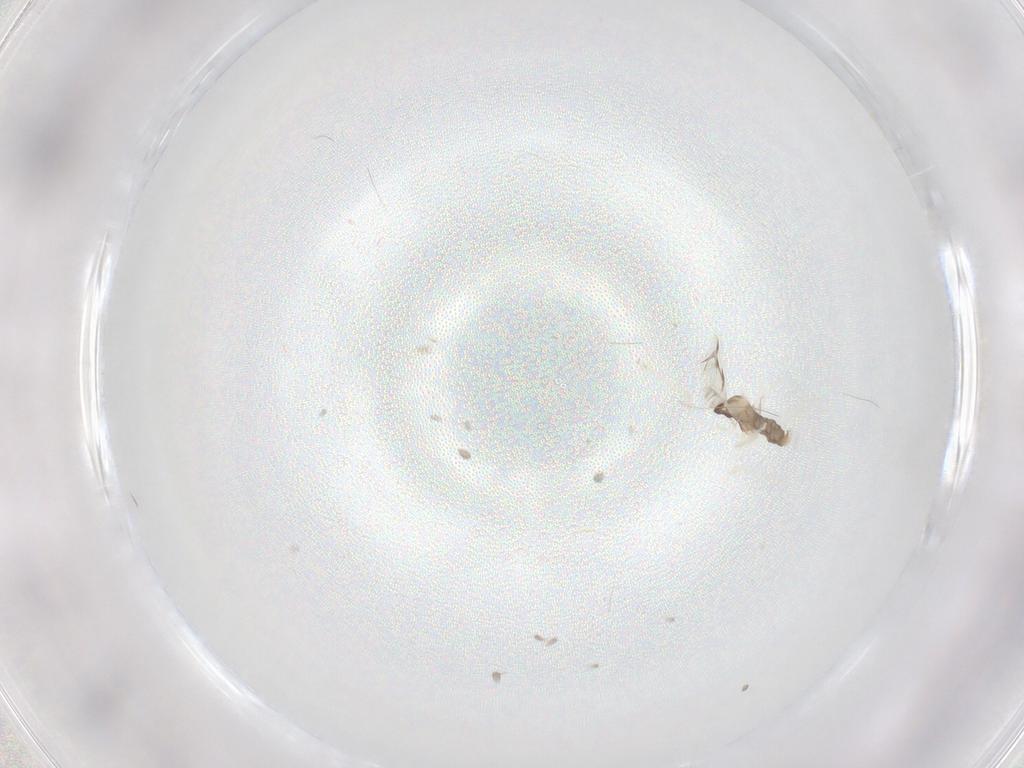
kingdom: Animalia
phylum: Arthropoda
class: Insecta
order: Diptera
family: Cecidomyiidae
